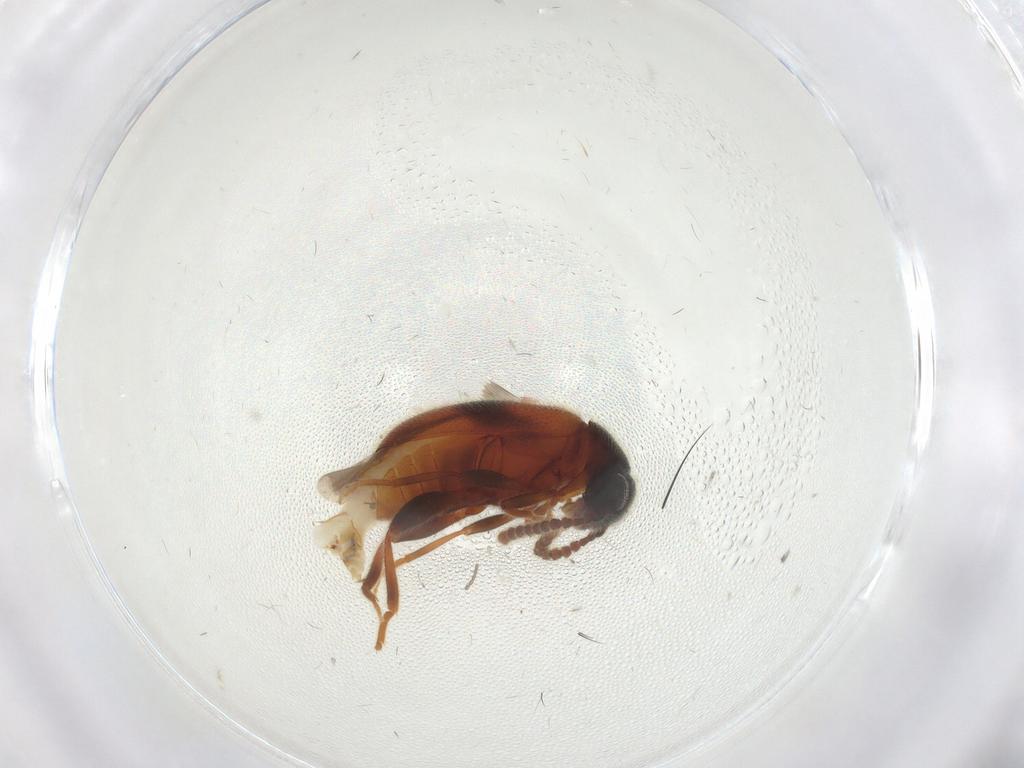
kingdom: Animalia
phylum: Arthropoda
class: Insecta
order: Coleoptera
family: Aderidae
